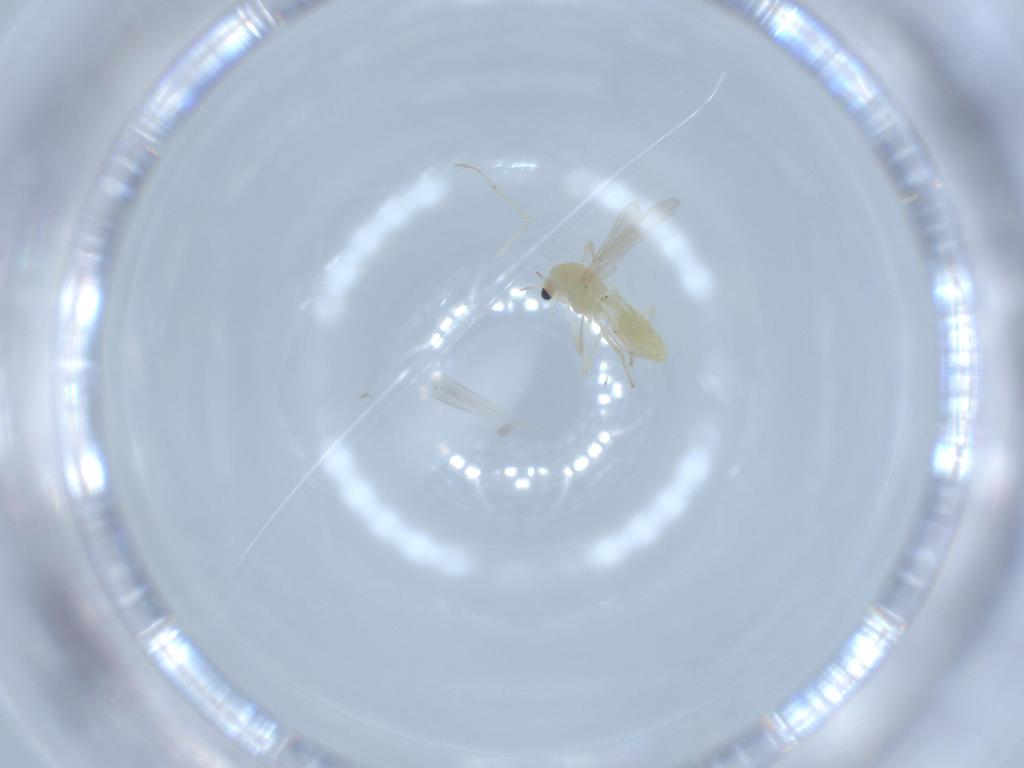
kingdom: Animalia
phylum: Arthropoda
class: Insecta
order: Diptera
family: Chironomidae
